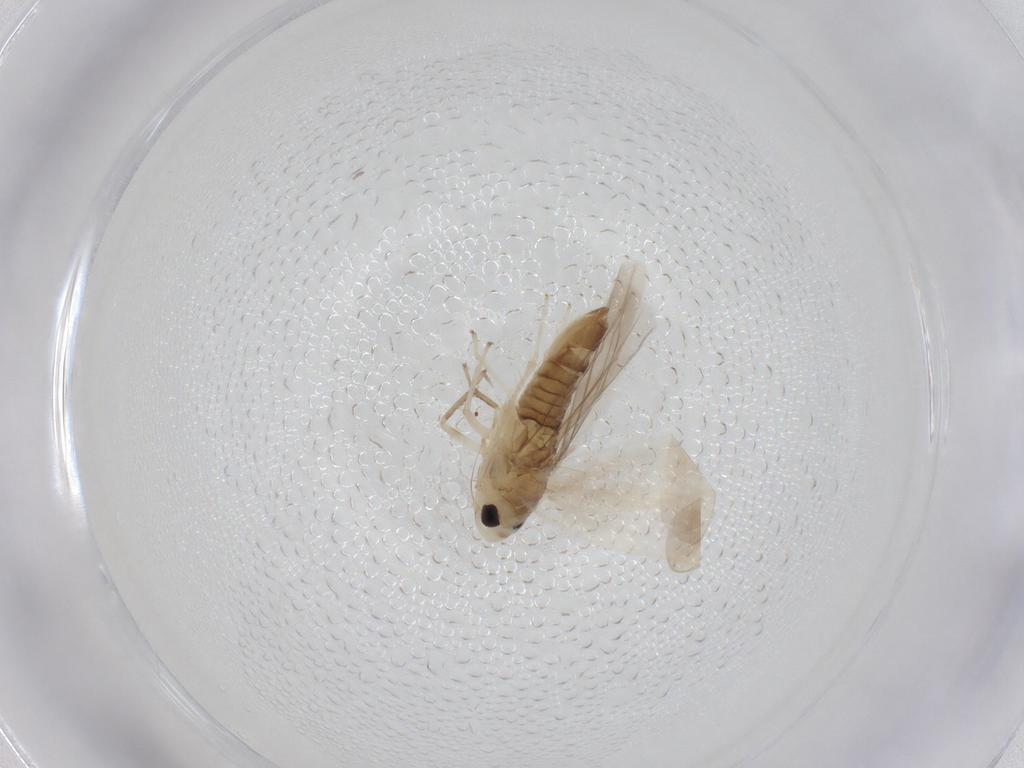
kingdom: Animalia
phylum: Arthropoda
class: Insecta
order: Hemiptera
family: Cicadellidae
